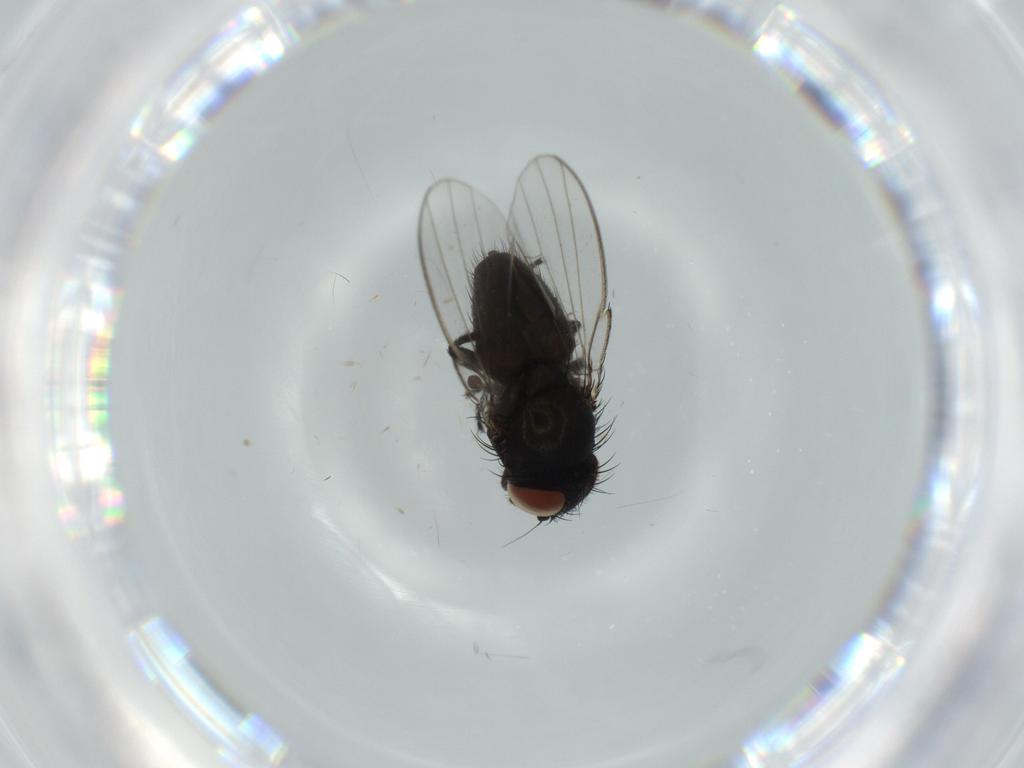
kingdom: Animalia
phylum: Arthropoda
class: Insecta
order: Diptera
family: Milichiidae
